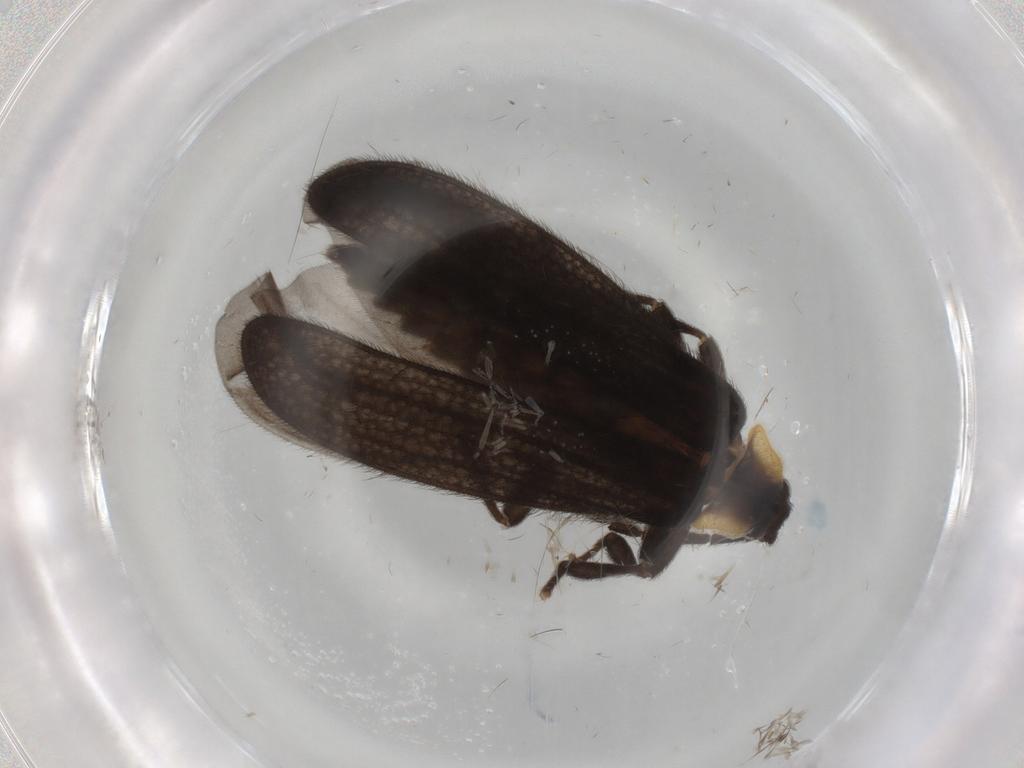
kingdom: Animalia
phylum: Arthropoda
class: Insecta
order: Coleoptera
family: Lycidae
